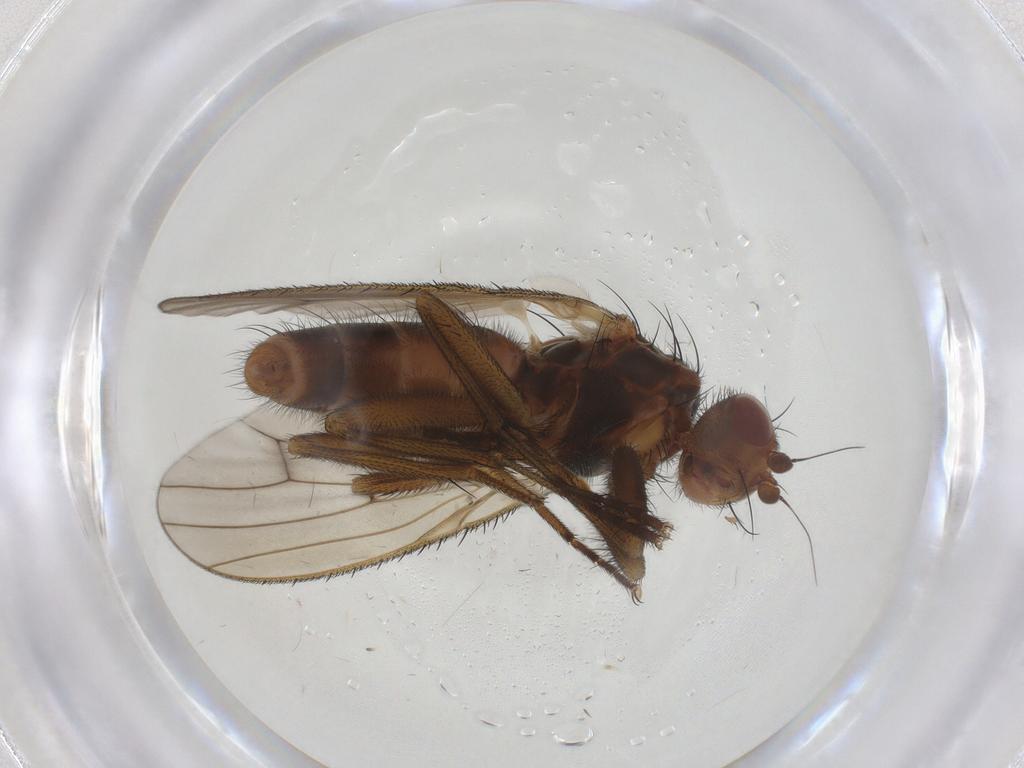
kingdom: Animalia
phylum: Arthropoda
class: Insecta
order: Diptera
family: Heleomyzidae
